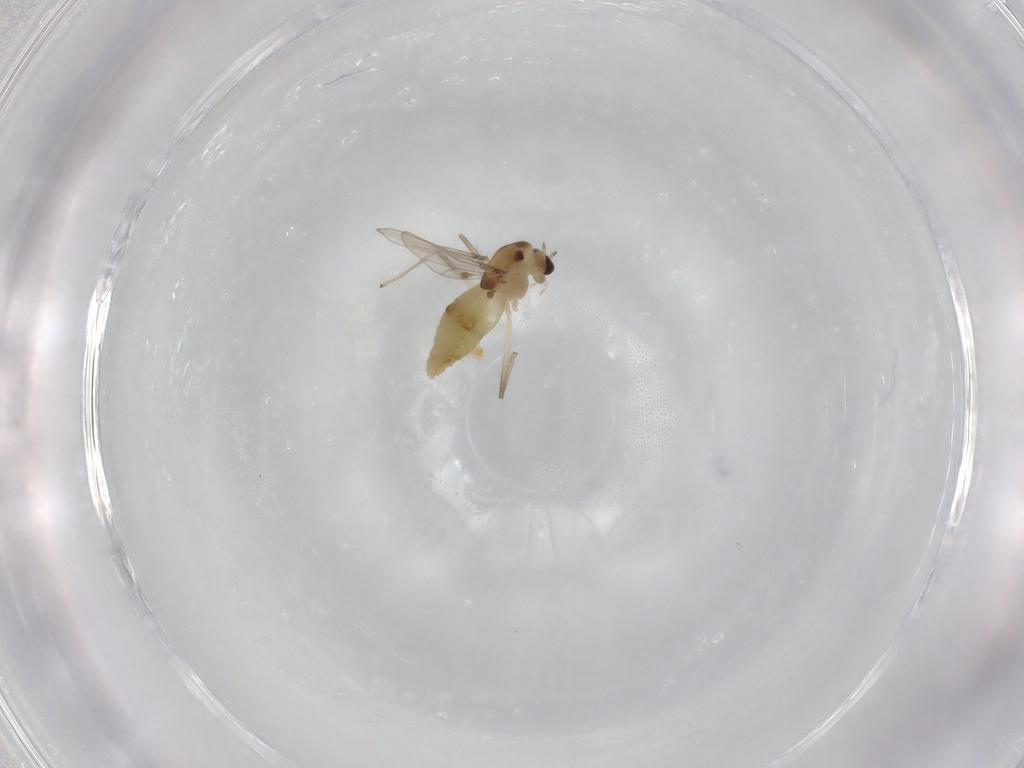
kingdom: Animalia
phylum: Arthropoda
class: Insecta
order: Diptera
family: Chironomidae
